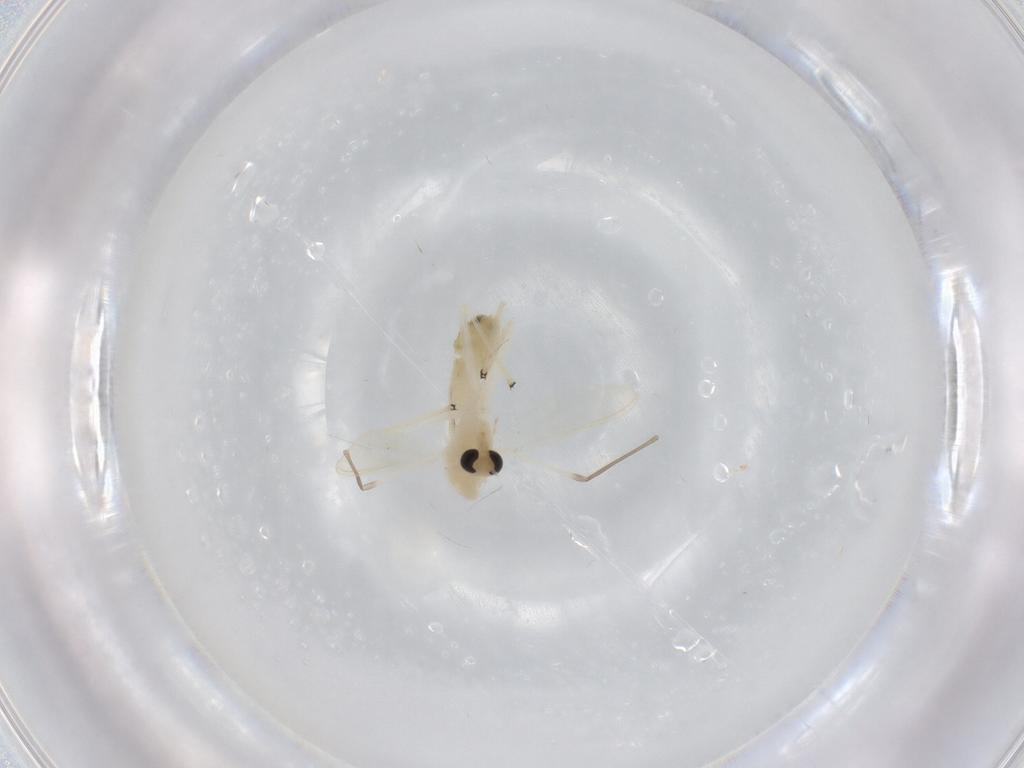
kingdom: Animalia
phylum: Arthropoda
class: Insecta
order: Diptera
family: Chironomidae
